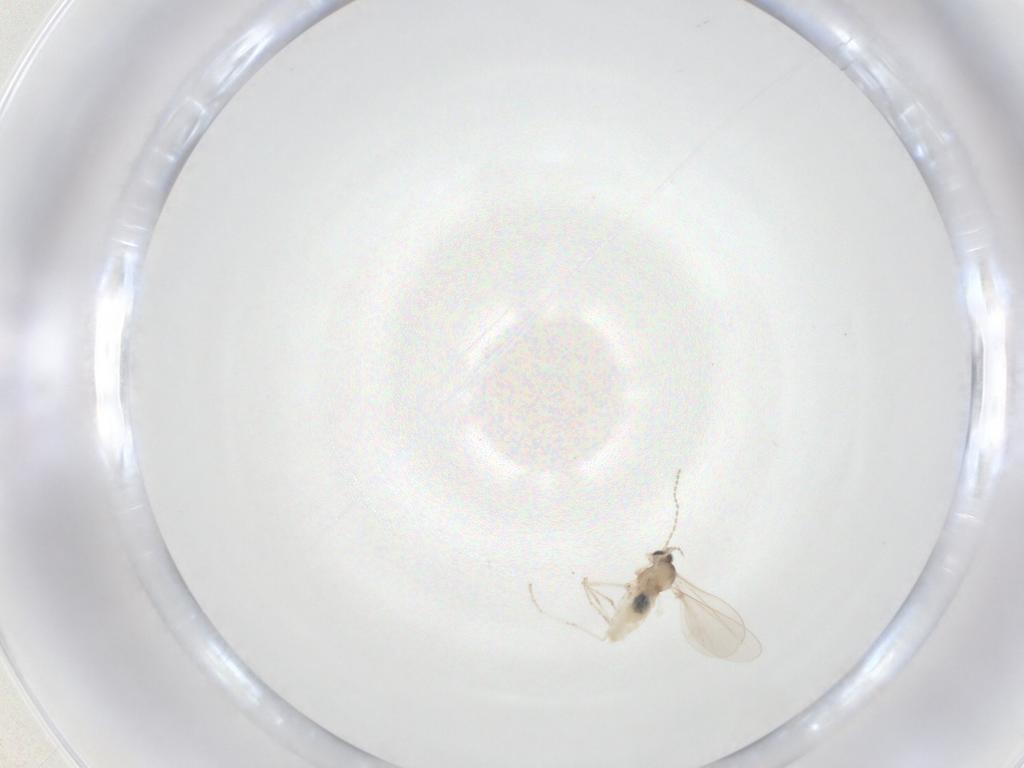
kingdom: Animalia
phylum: Arthropoda
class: Insecta
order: Diptera
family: Cecidomyiidae
